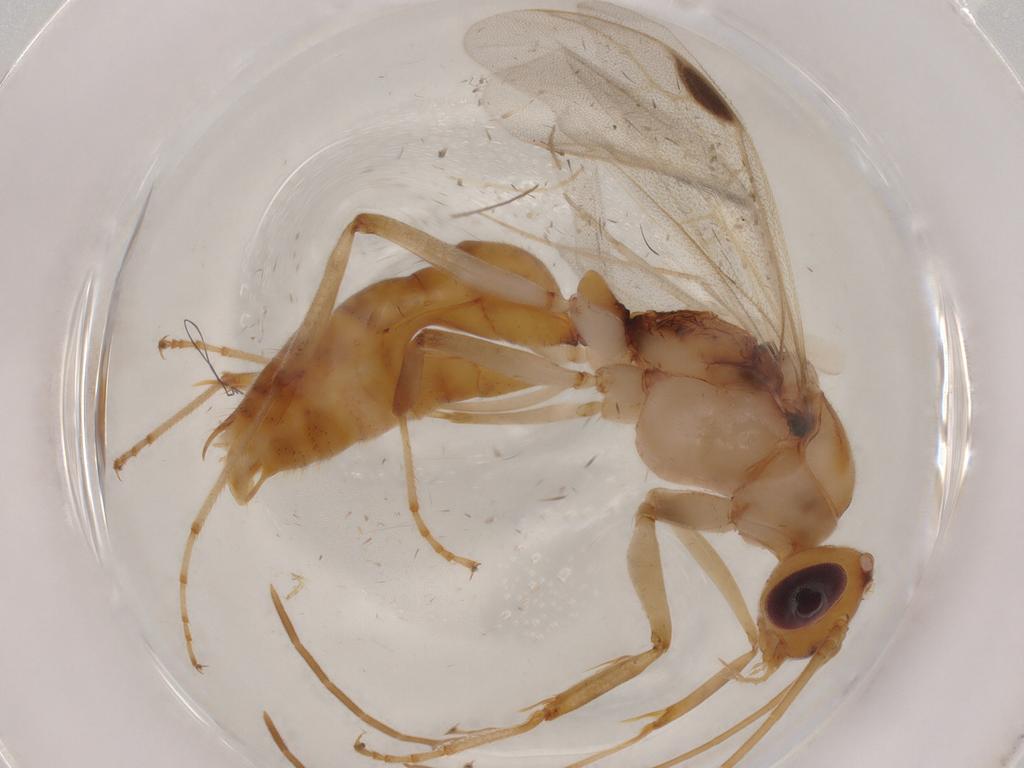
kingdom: Animalia
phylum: Arthropoda
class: Insecta
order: Hymenoptera
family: Formicidae
